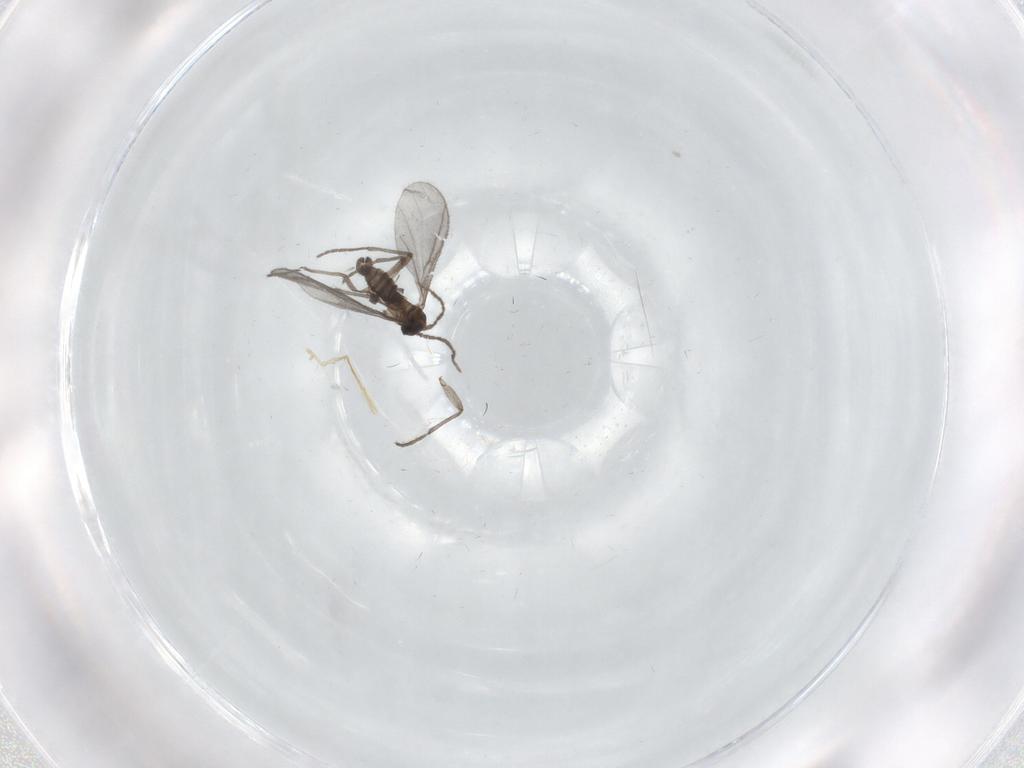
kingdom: Animalia
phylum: Arthropoda
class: Insecta
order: Diptera
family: Sciaridae
